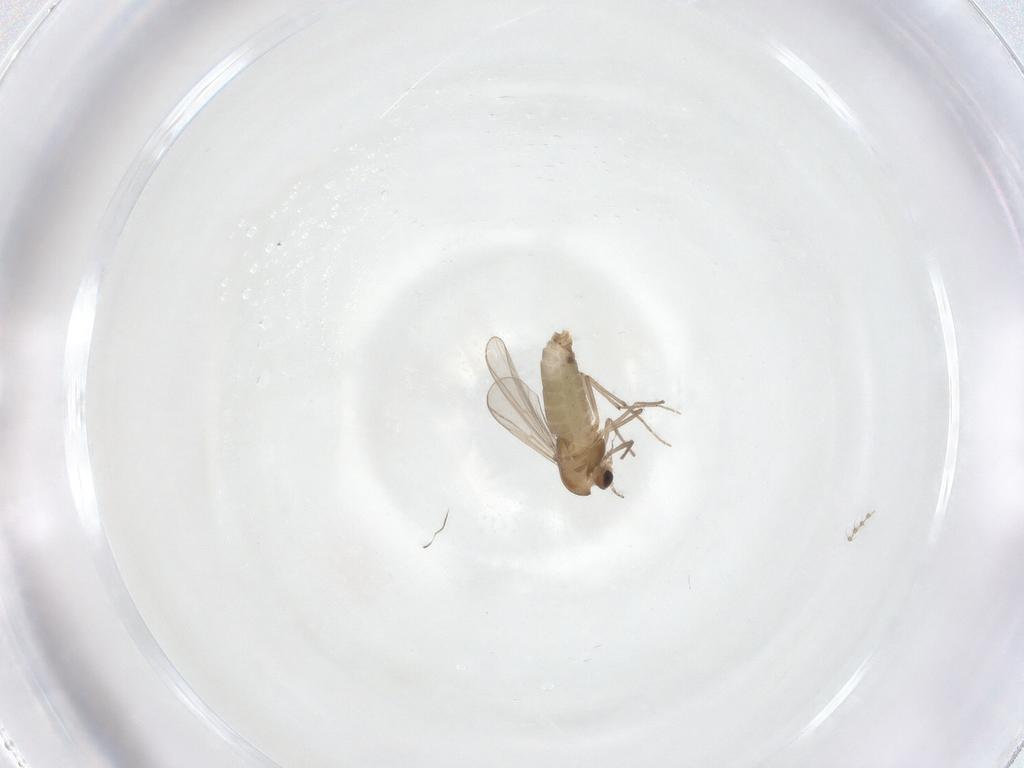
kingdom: Animalia
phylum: Arthropoda
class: Insecta
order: Diptera
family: Chironomidae
